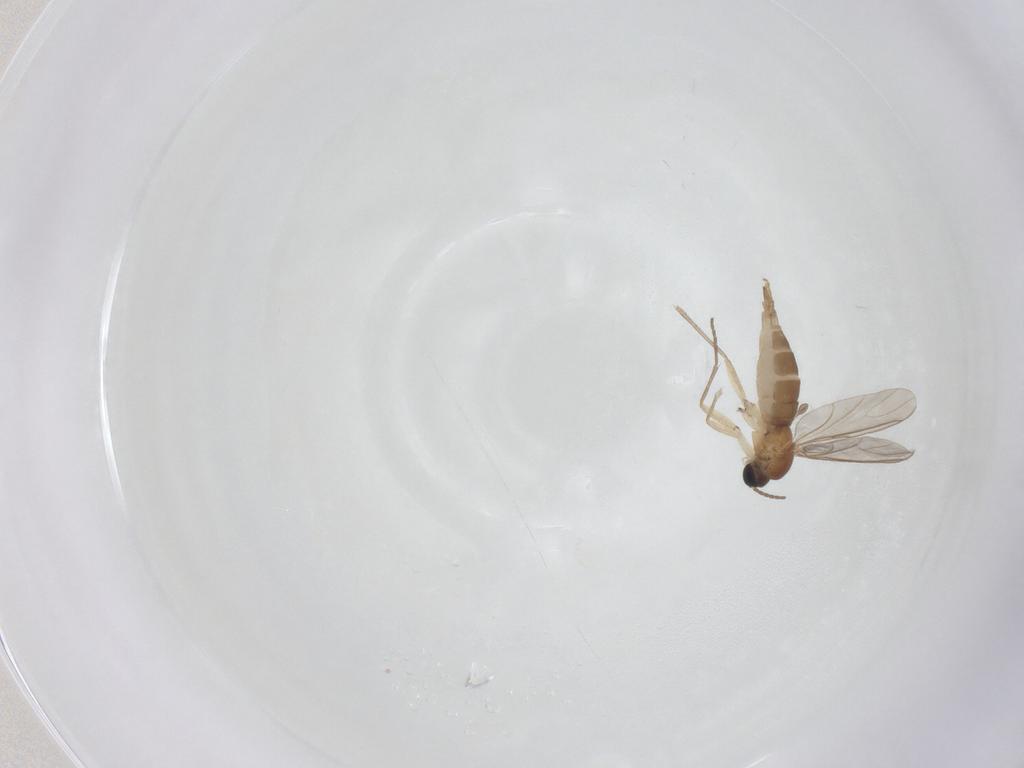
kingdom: Animalia
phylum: Arthropoda
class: Insecta
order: Diptera
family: Sciaridae
